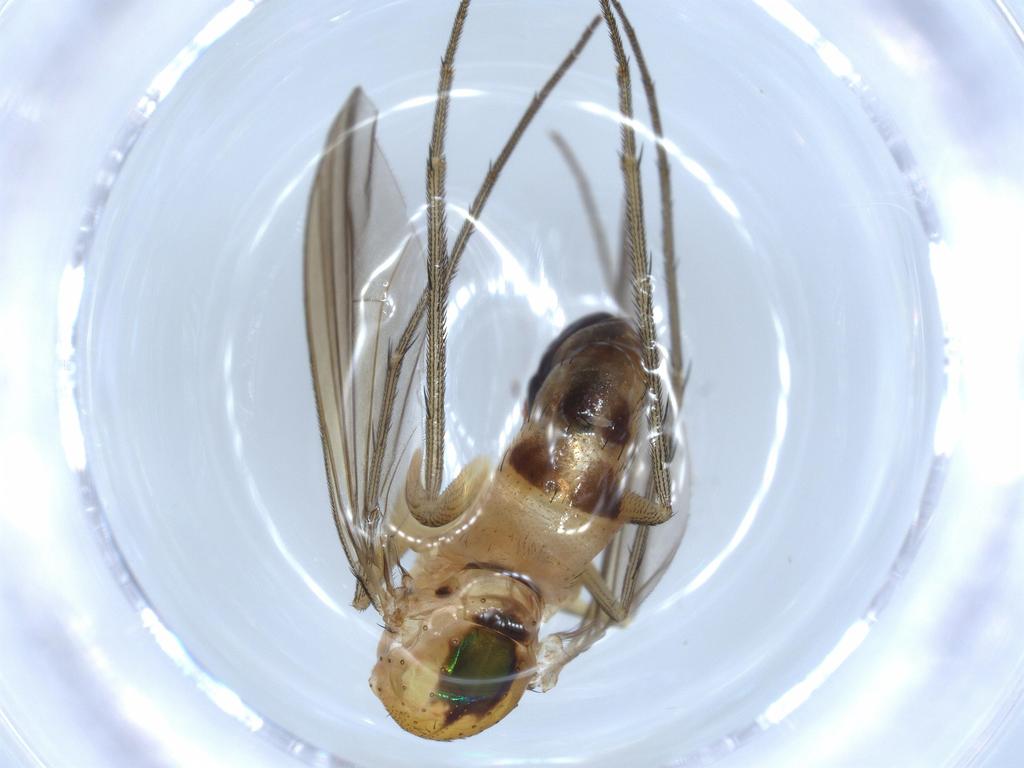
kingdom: Animalia
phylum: Arthropoda
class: Insecta
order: Diptera
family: Dolichopodidae
